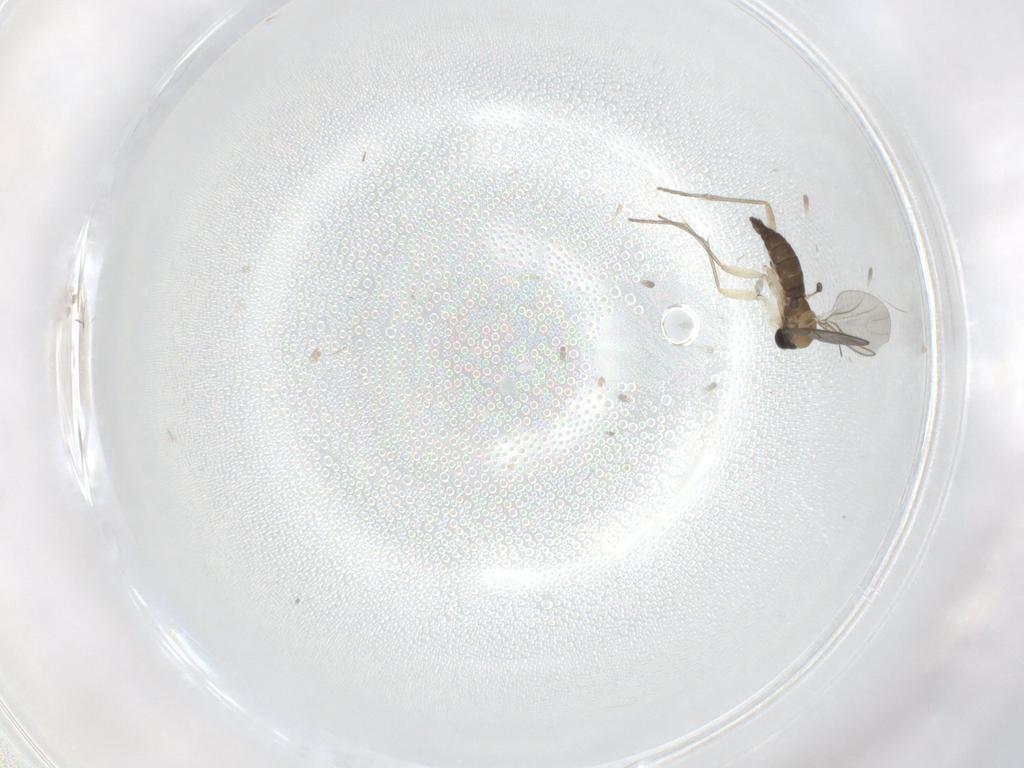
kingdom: Animalia
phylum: Arthropoda
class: Insecta
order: Diptera
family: Sciaridae
